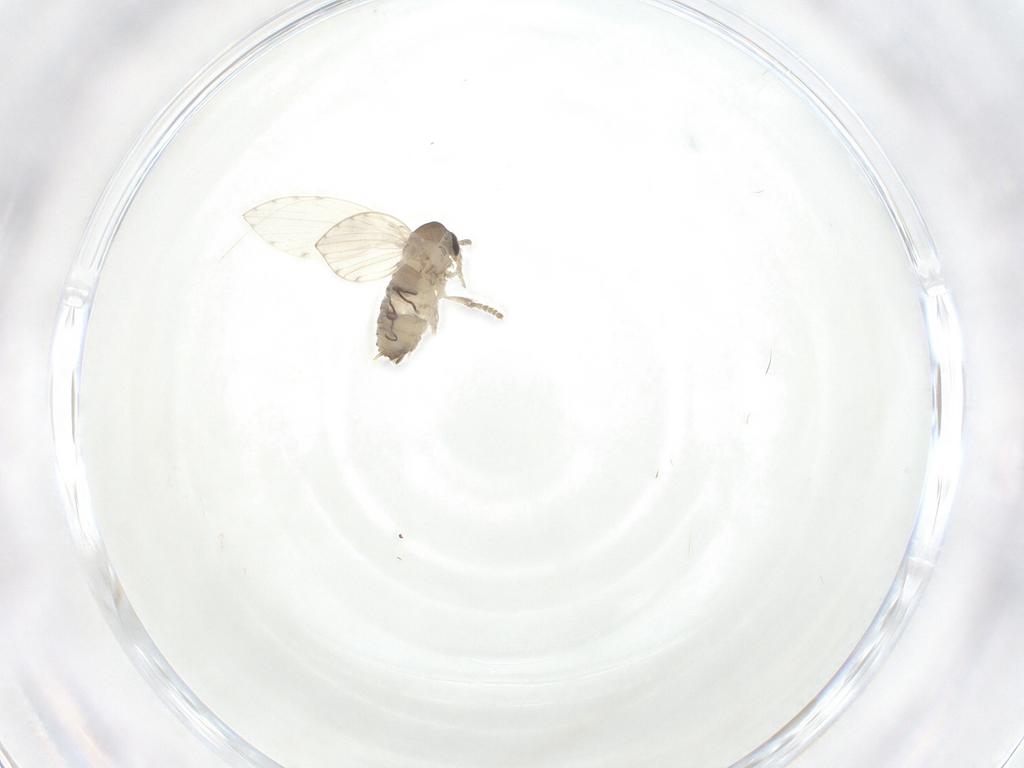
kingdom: Animalia
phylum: Arthropoda
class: Insecta
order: Diptera
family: Psychodidae
